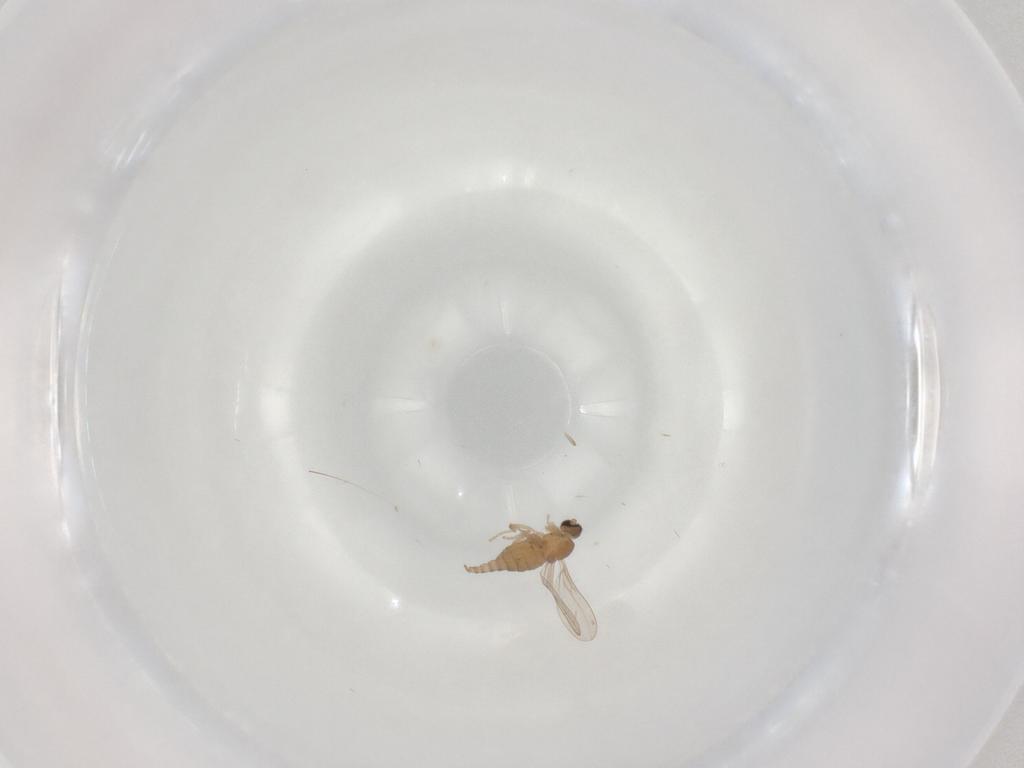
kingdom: Animalia
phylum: Arthropoda
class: Insecta
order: Diptera
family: Cecidomyiidae
